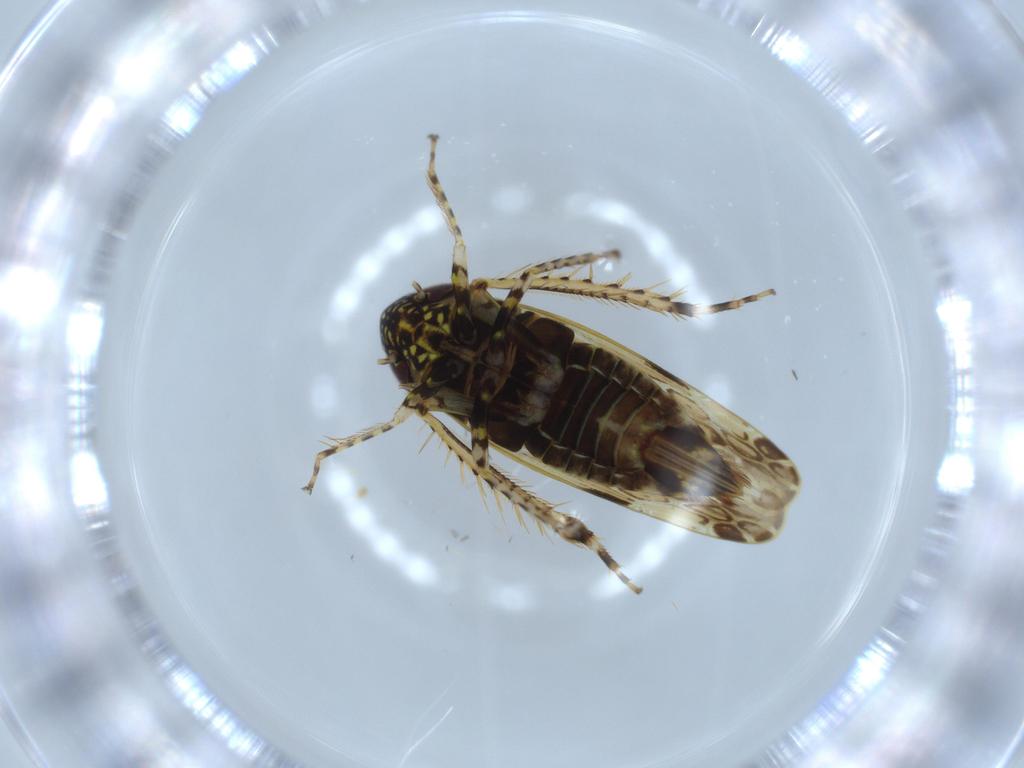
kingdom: Animalia
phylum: Arthropoda
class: Insecta
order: Hemiptera
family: Cicadellidae
